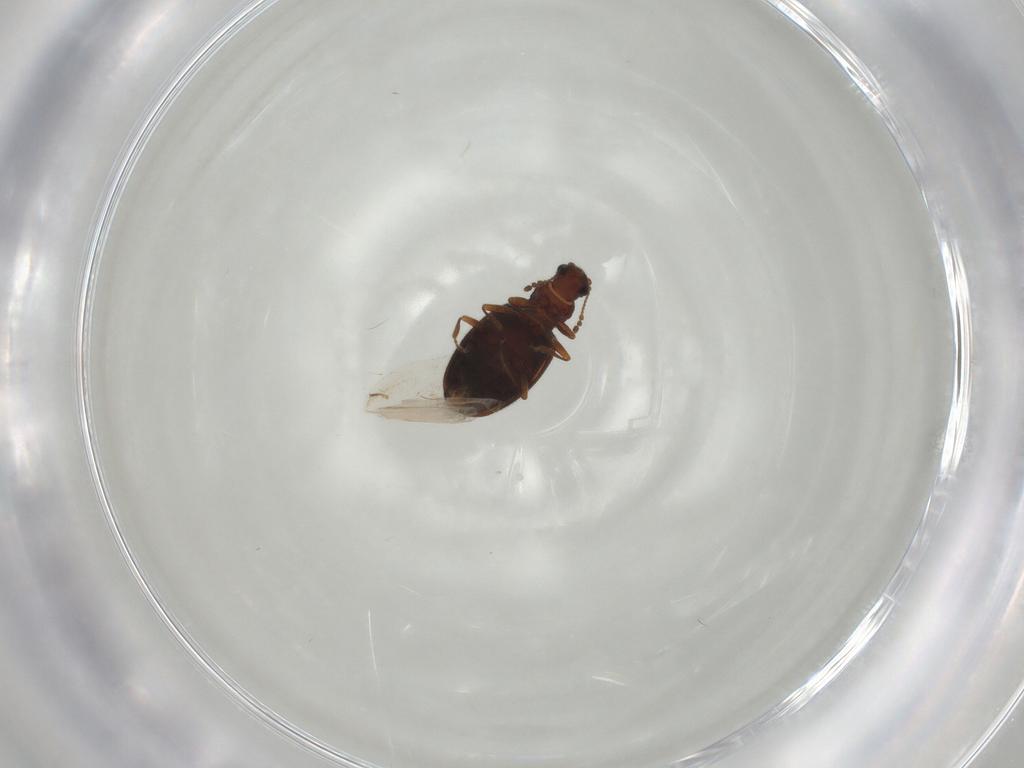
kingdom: Animalia
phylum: Arthropoda
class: Insecta
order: Coleoptera
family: Latridiidae
